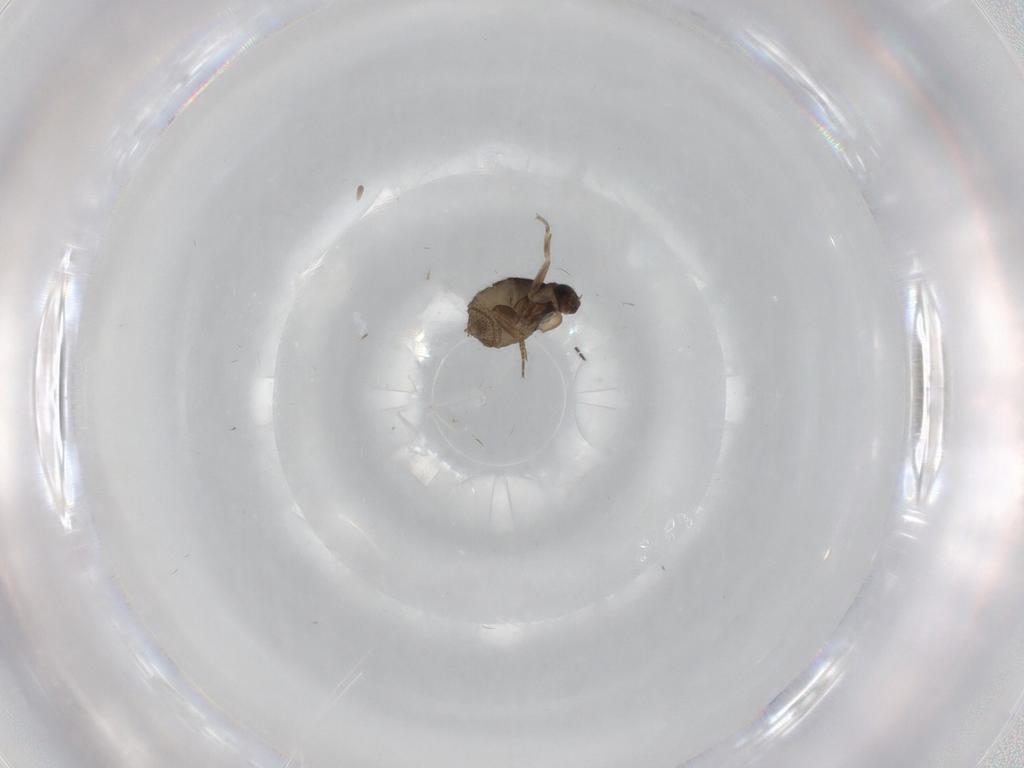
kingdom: Animalia
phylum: Arthropoda
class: Insecta
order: Diptera
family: Phoridae
